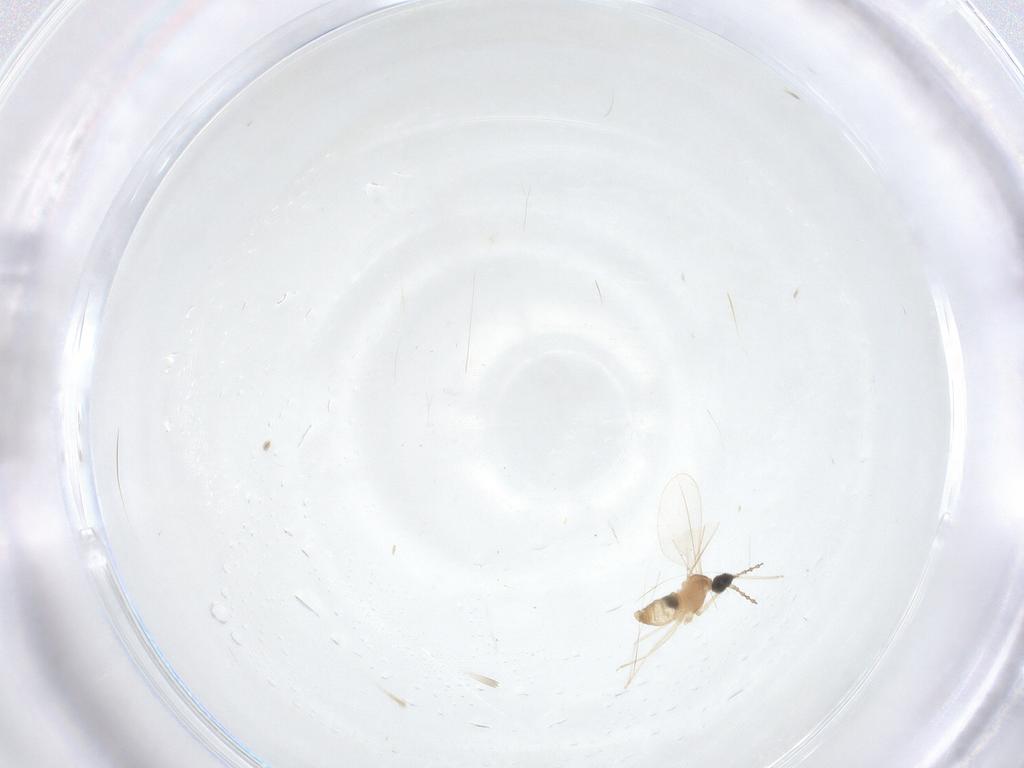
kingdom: Animalia
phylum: Arthropoda
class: Insecta
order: Diptera
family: Cecidomyiidae
